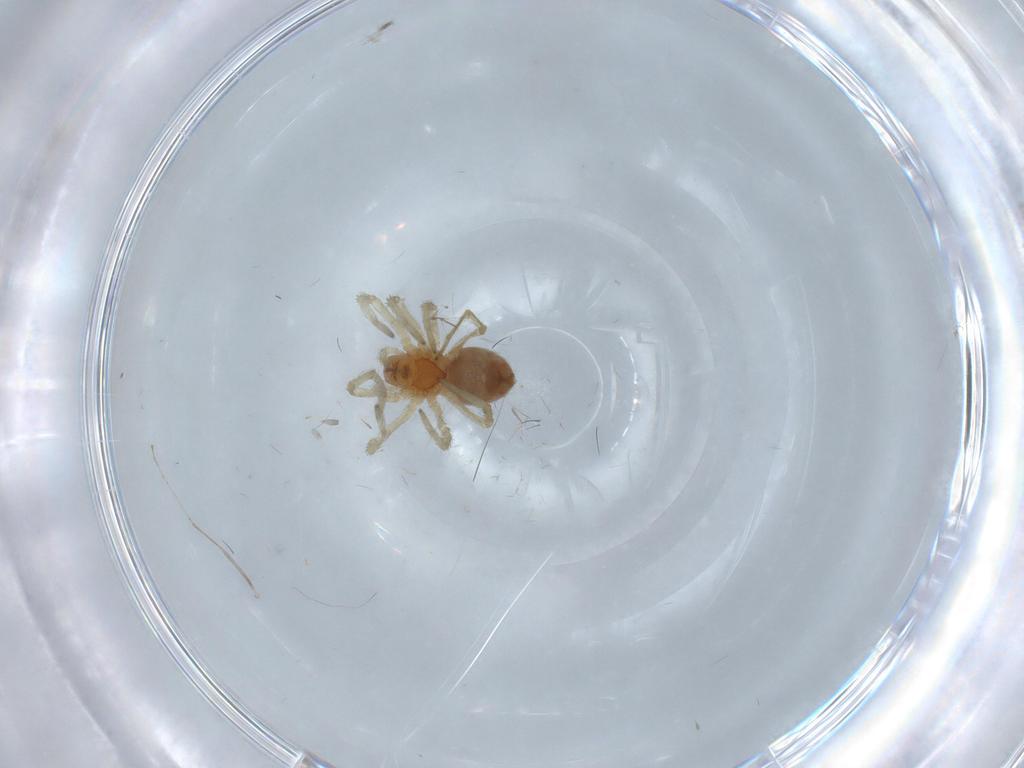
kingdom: Animalia
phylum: Arthropoda
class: Arachnida
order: Araneae
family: Dictynidae
